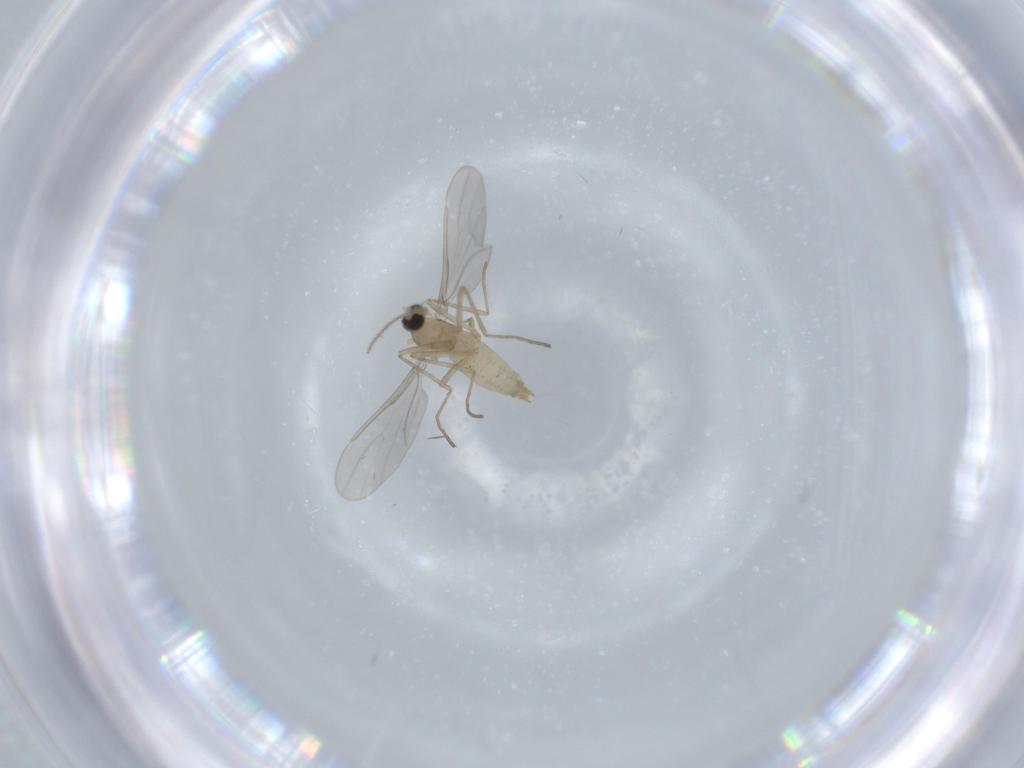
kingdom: Animalia
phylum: Arthropoda
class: Insecta
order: Diptera
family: Cecidomyiidae
